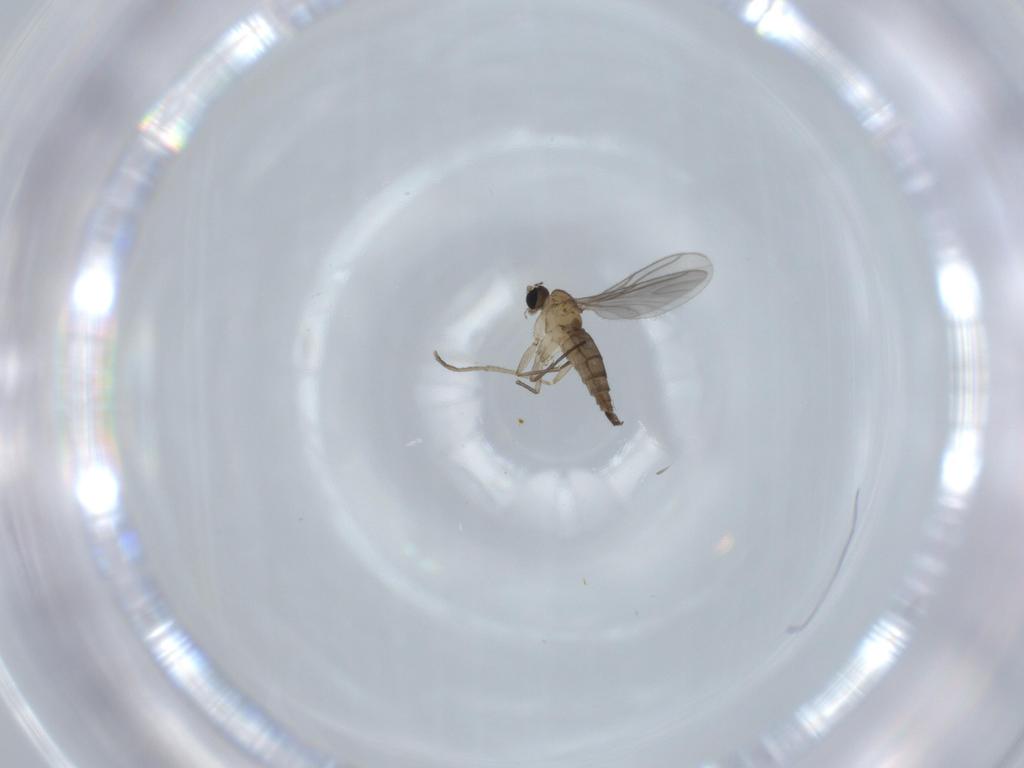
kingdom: Animalia
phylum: Arthropoda
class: Insecta
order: Diptera
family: Sciaridae
